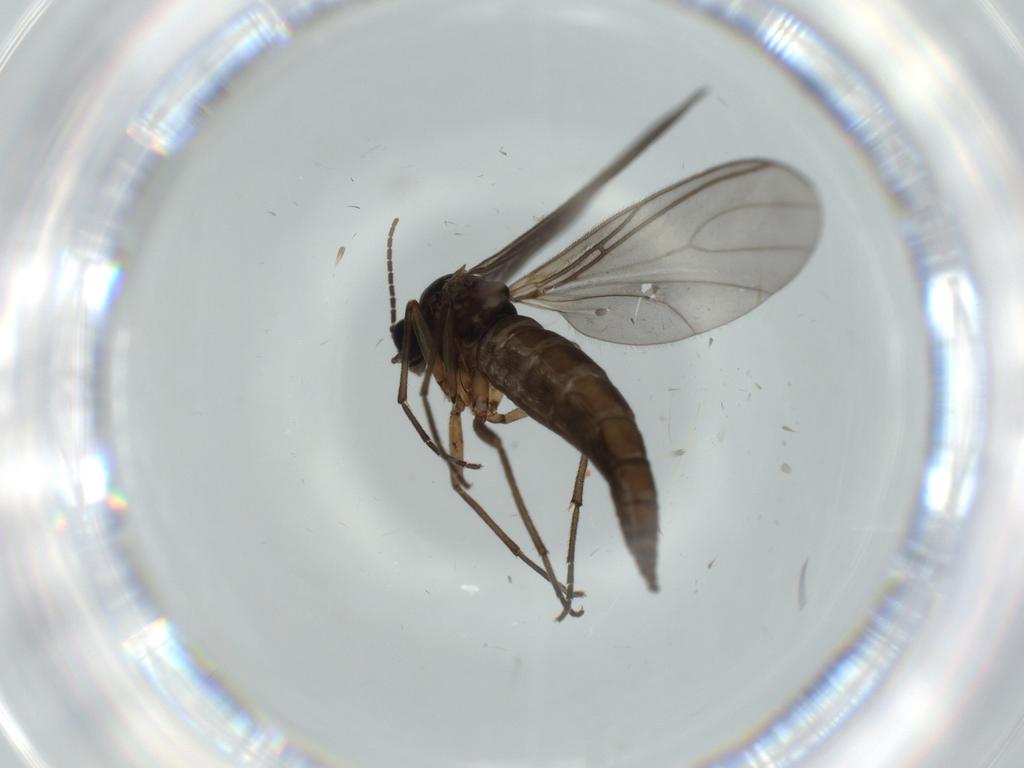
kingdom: Animalia
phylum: Arthropoda
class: Insecta
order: Diptera
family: Sciaridae
